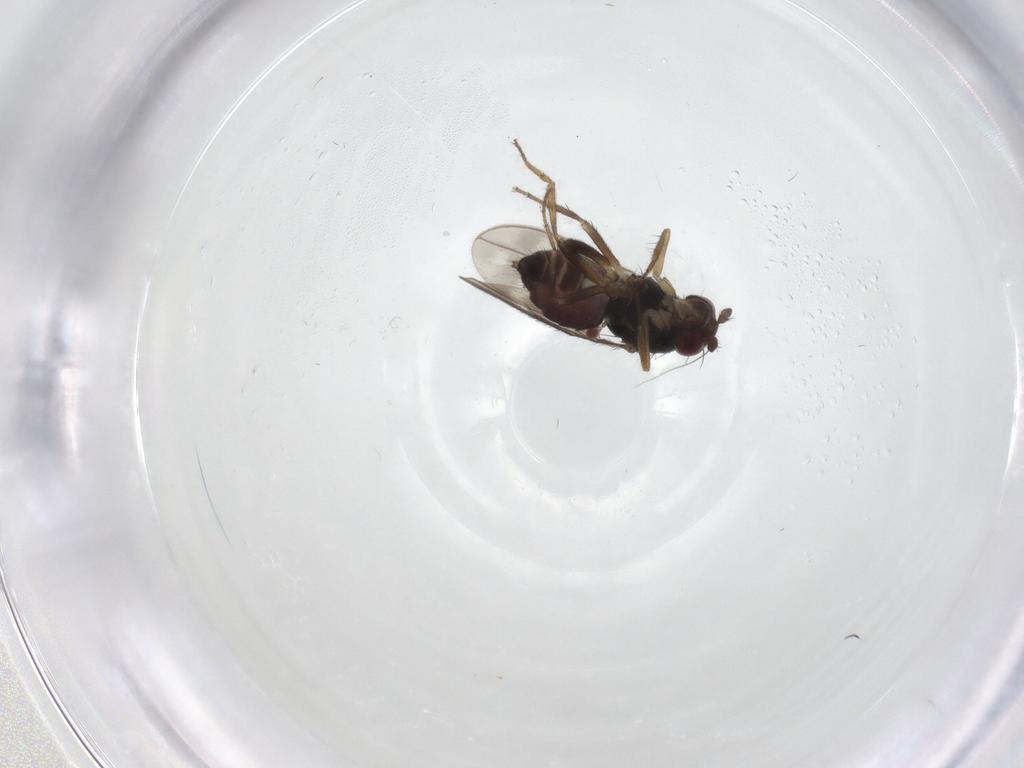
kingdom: Animalia
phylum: Arthropoda
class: Insecta
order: Diptera
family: Sphaeroceridae
